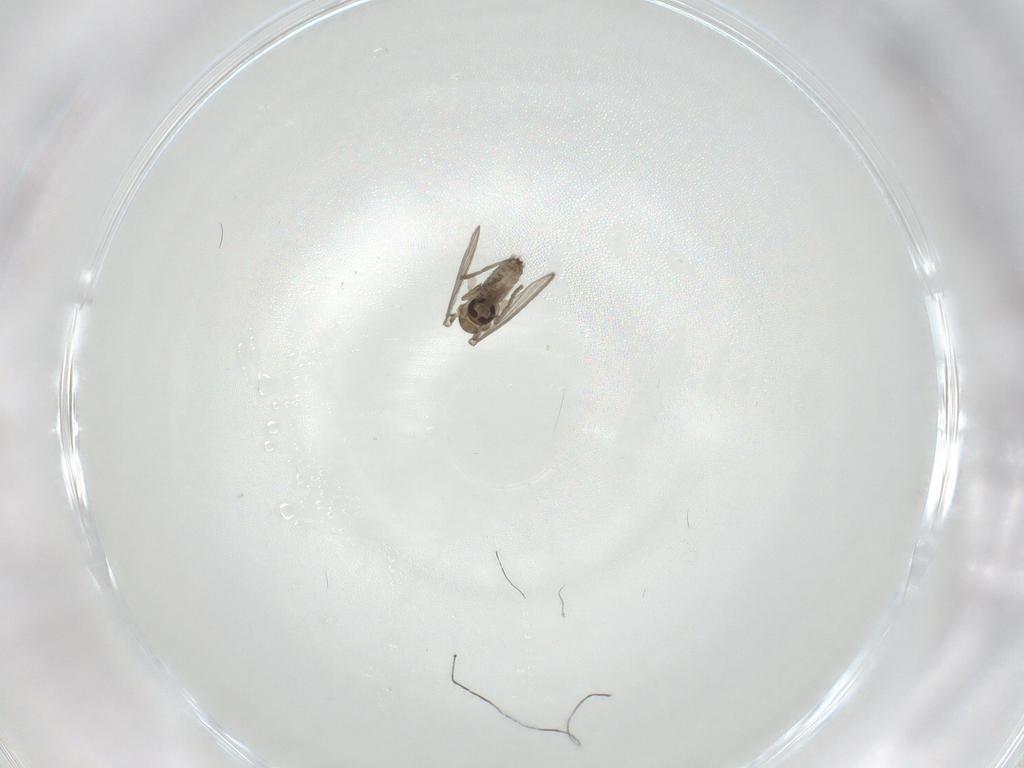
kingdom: Animalia
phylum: Arthropoda
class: Insecta
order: Diptera
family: Psychodidae
